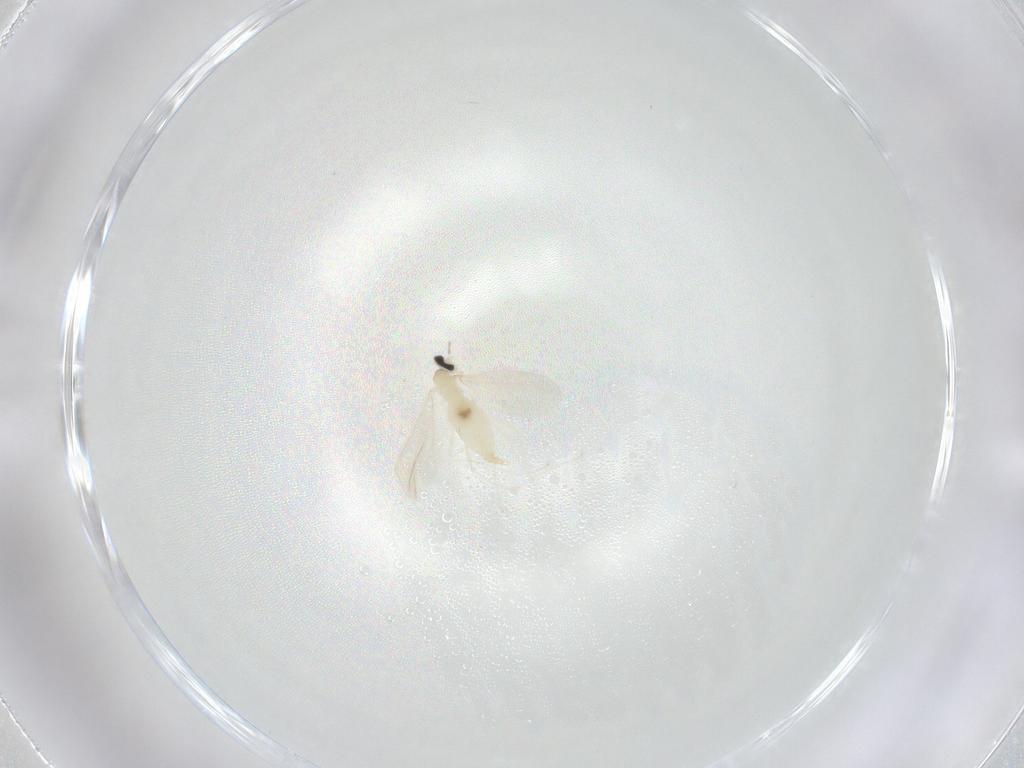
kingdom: Animalia
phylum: Arthropoda
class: Insecta
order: Diptera
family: Cecidomyiidae
